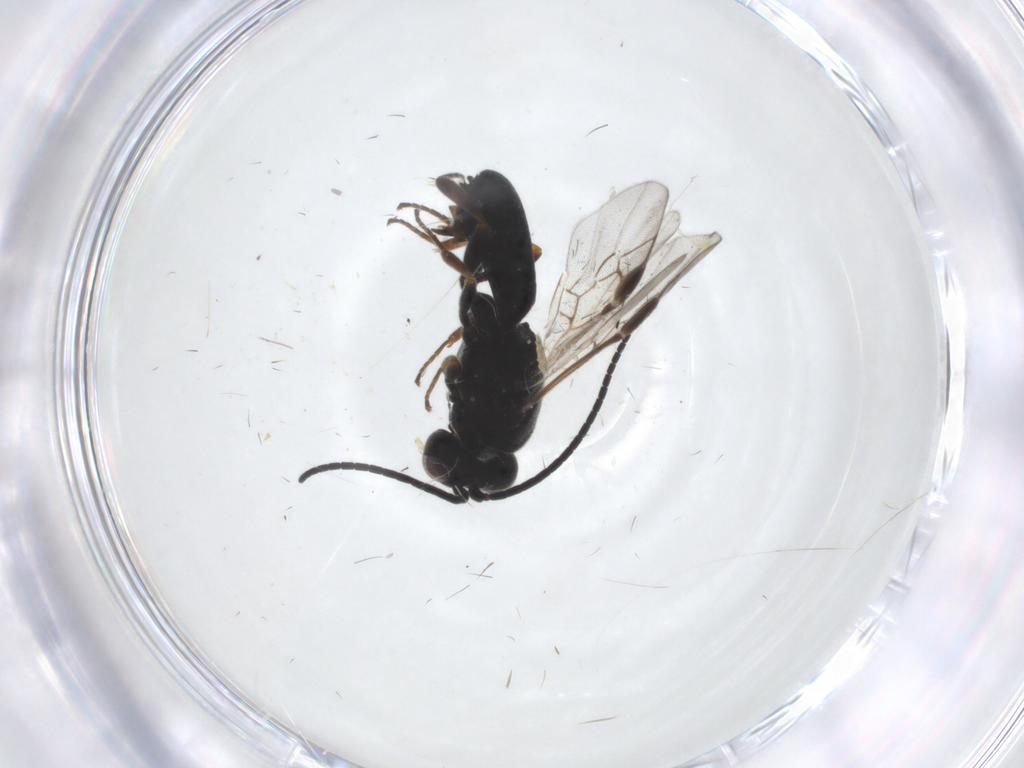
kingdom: Animalia
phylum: Arthropoda
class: Insecta
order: Hymenoptera
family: Braconidae
